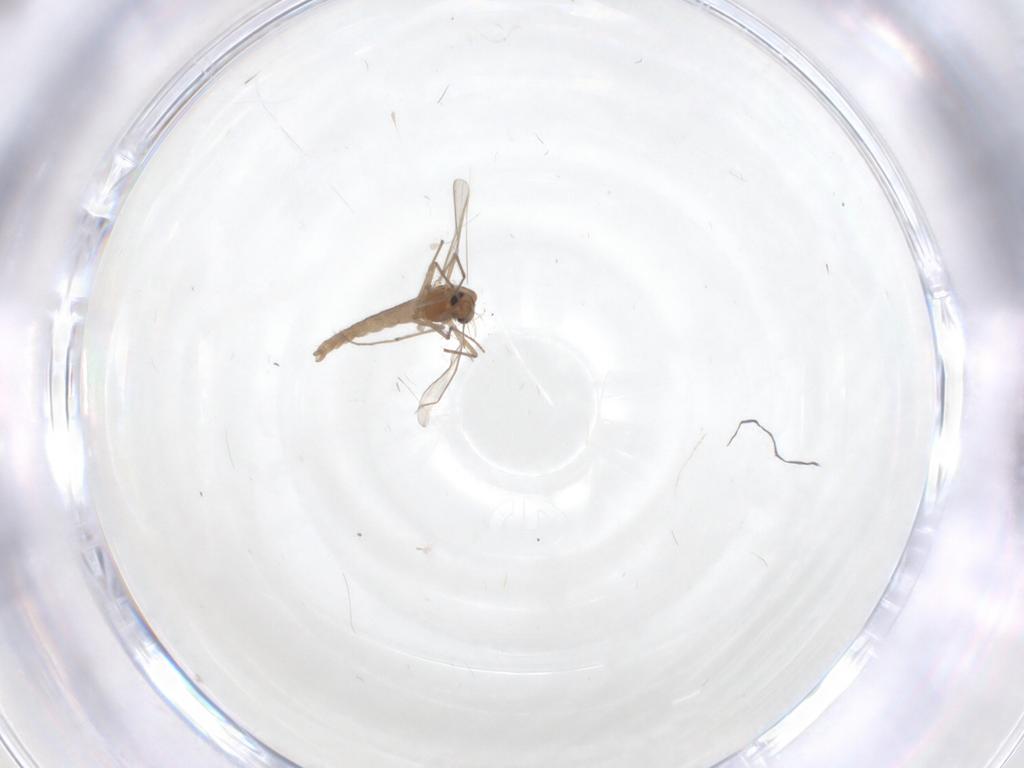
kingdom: Animalia
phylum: Arthropoda
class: Insecta
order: Diptera
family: Chironomidae
